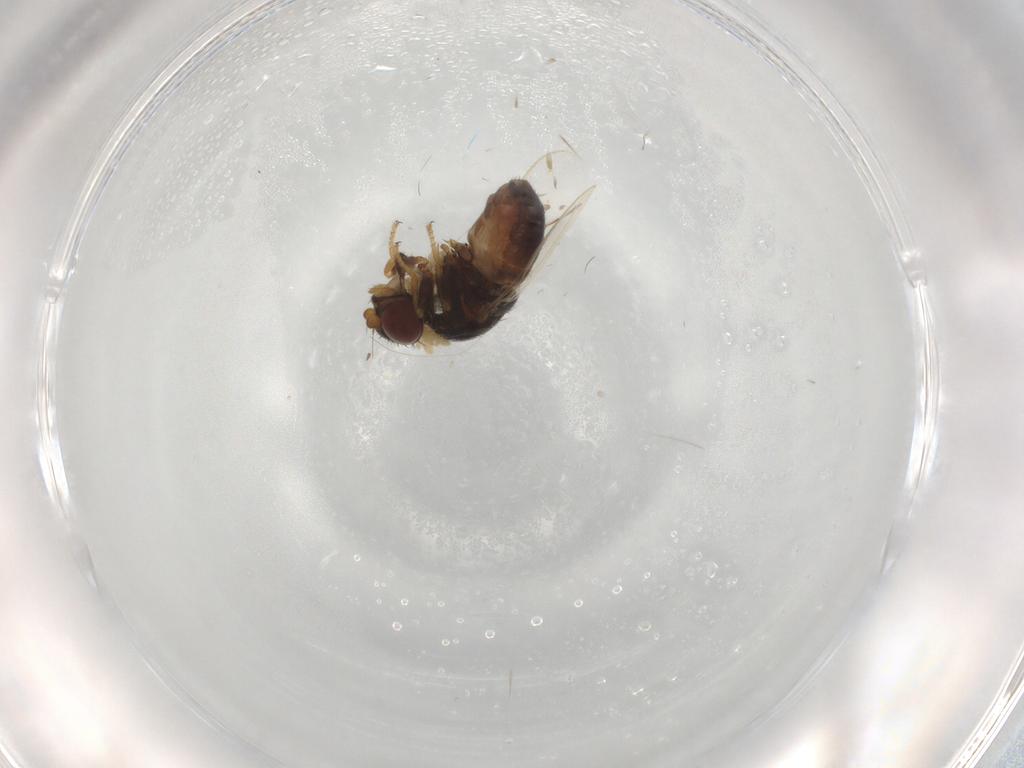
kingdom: Animalia
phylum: Arthropoda
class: Insecta
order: Diptera
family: Chloropidae
